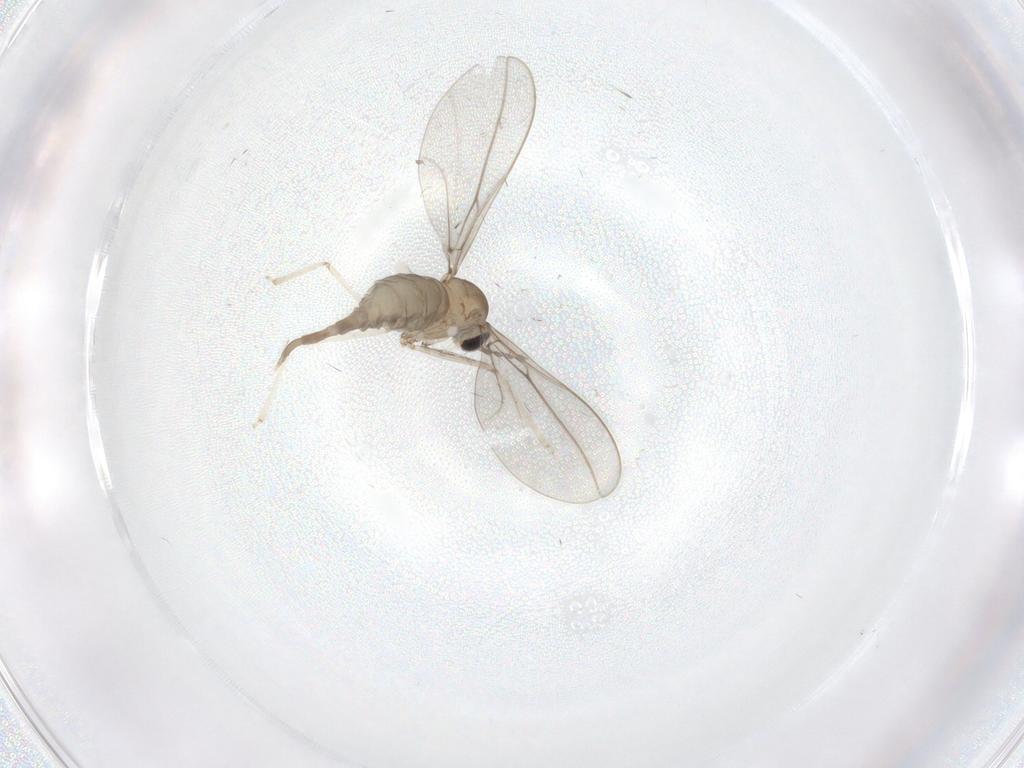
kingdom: Animalia
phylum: Arthropoda
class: Insecta
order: Diptera
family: Cecidomyiidae
